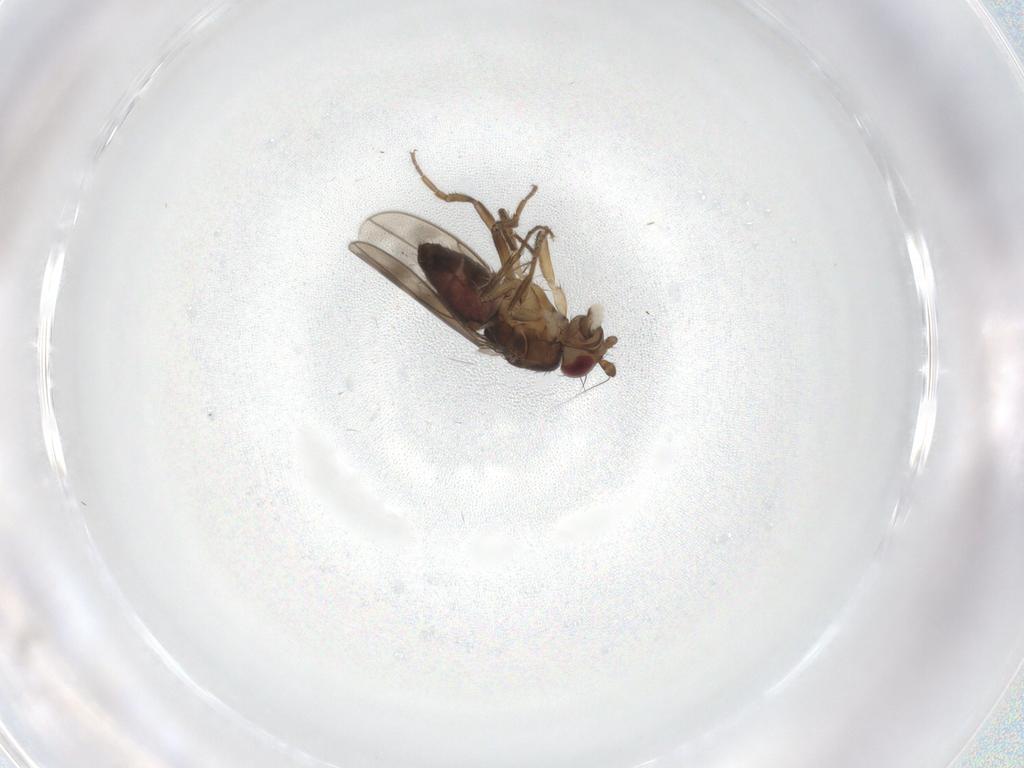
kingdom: Animalia
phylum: Arthropoda
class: Insecta
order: Diptera
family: Sphaeroceridae
